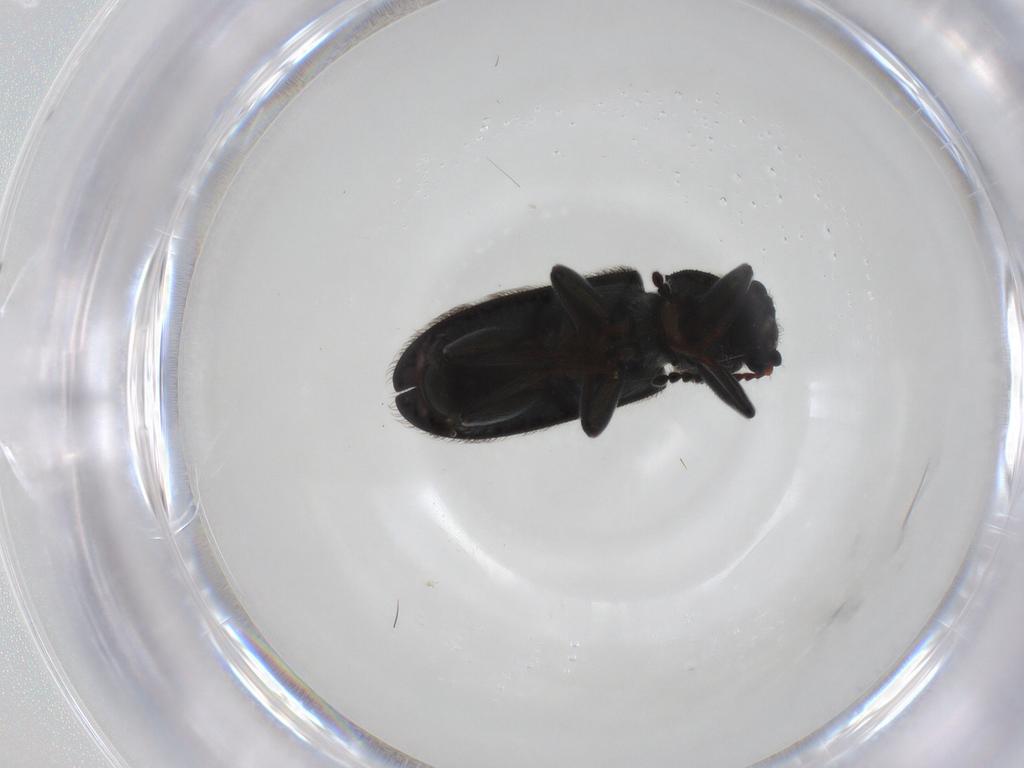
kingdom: Animalia
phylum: Arthropoda
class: Insecta
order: Coleoptera
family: Melyridae
